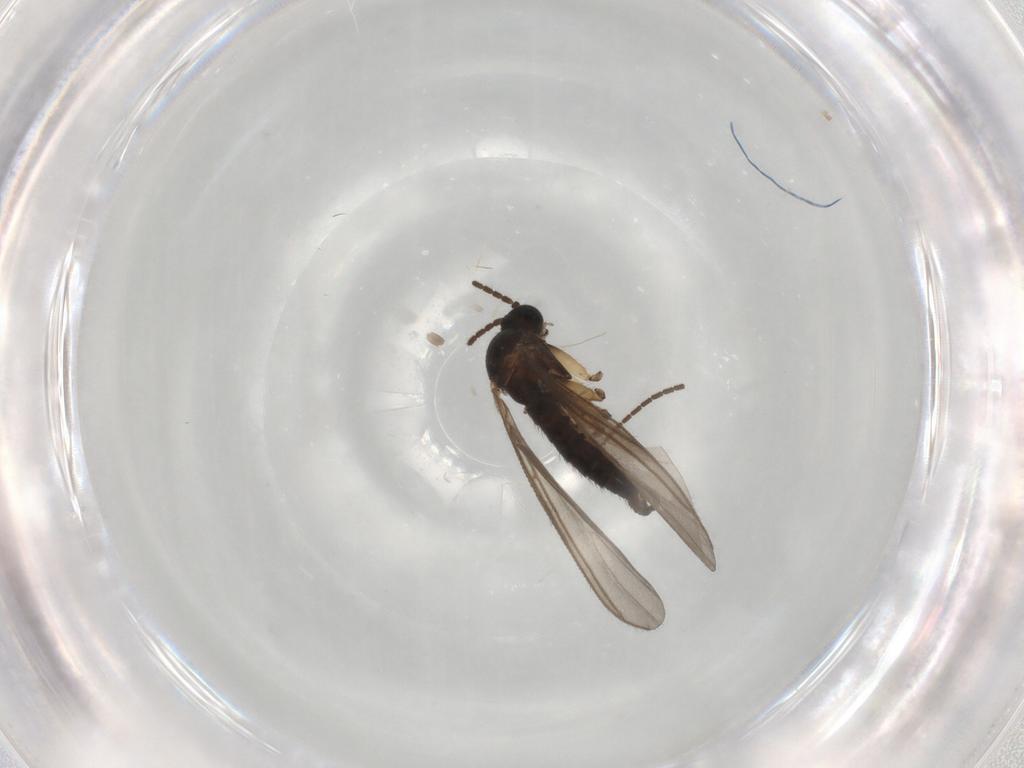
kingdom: Animalia
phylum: Arthropoda
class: Insecta
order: Diptera
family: Sciaridae
